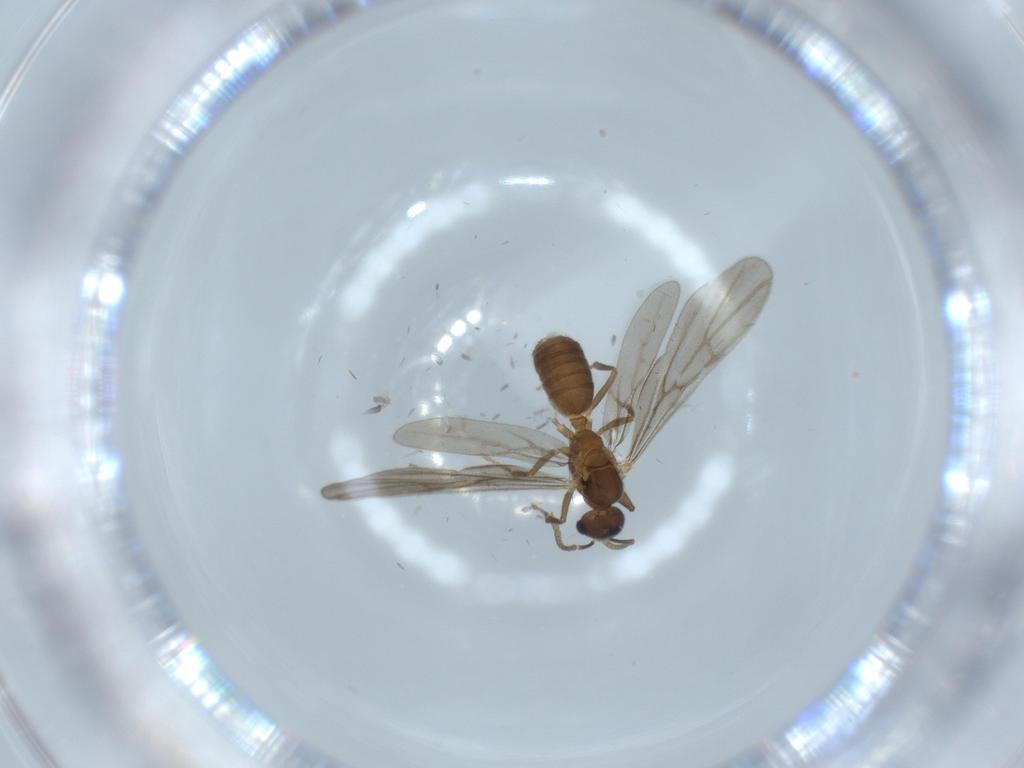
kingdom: Animalia
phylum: Arthropoda
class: Insecta
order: Hymenoptera
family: Formicidae
